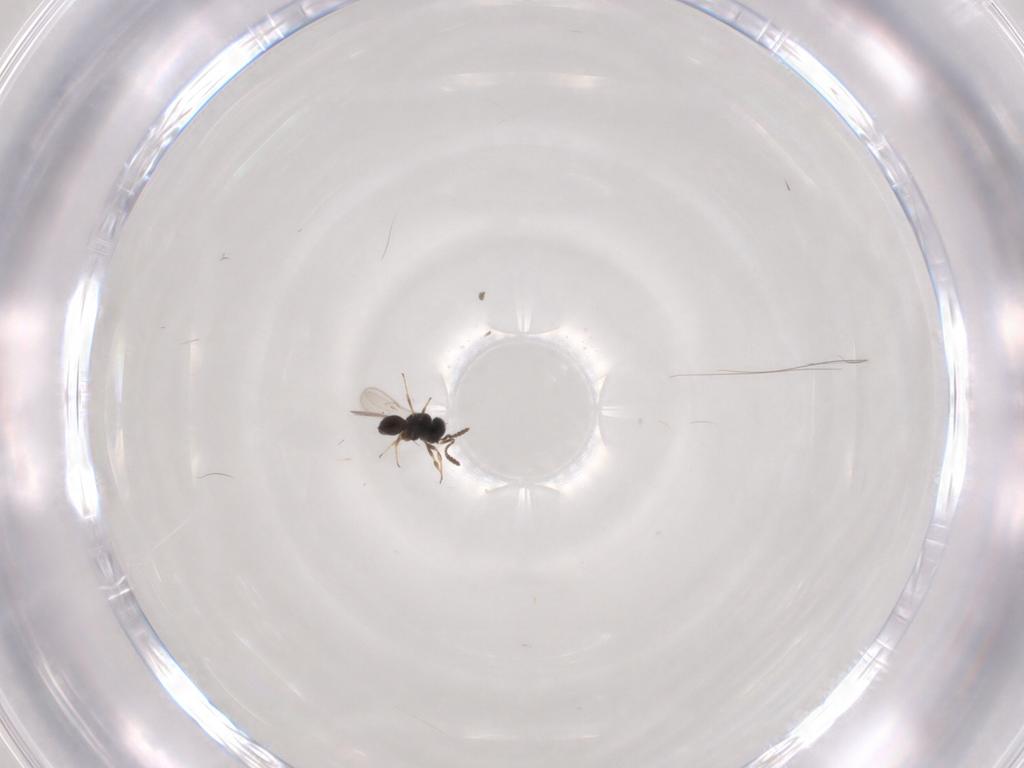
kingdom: Animalia
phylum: Arthropoda
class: Insecta
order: Hymenoptera
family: Scelionidae
